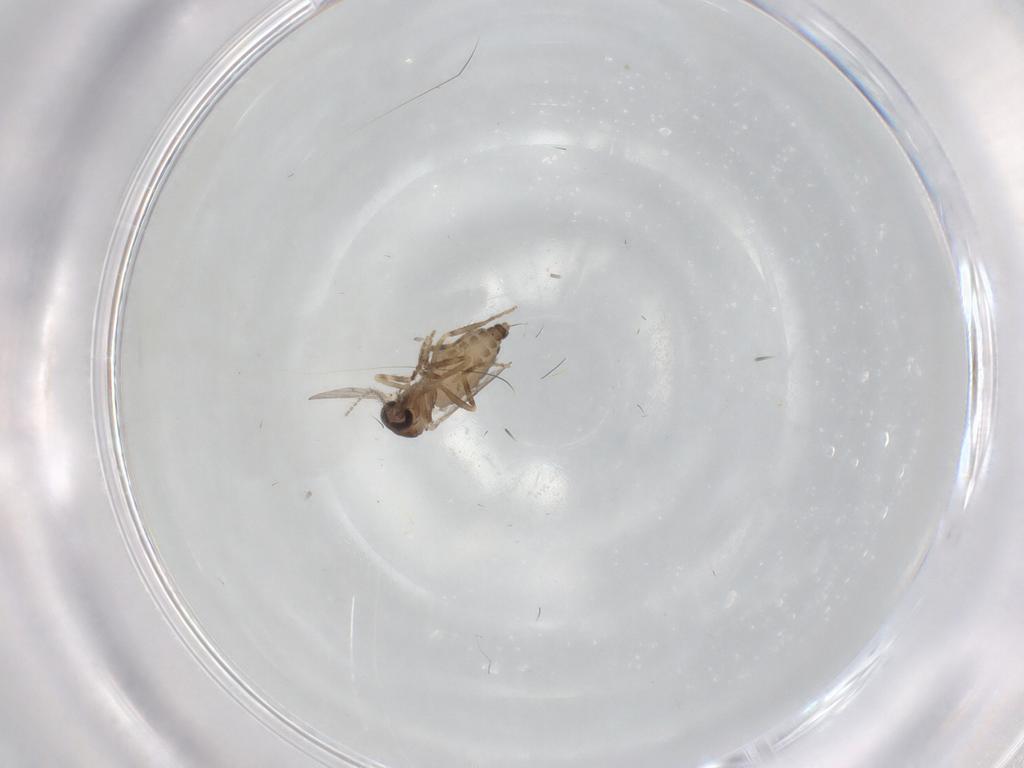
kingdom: Animalia
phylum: Arthropoda
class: Insecta
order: Diptera
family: Ceratopogonidae
